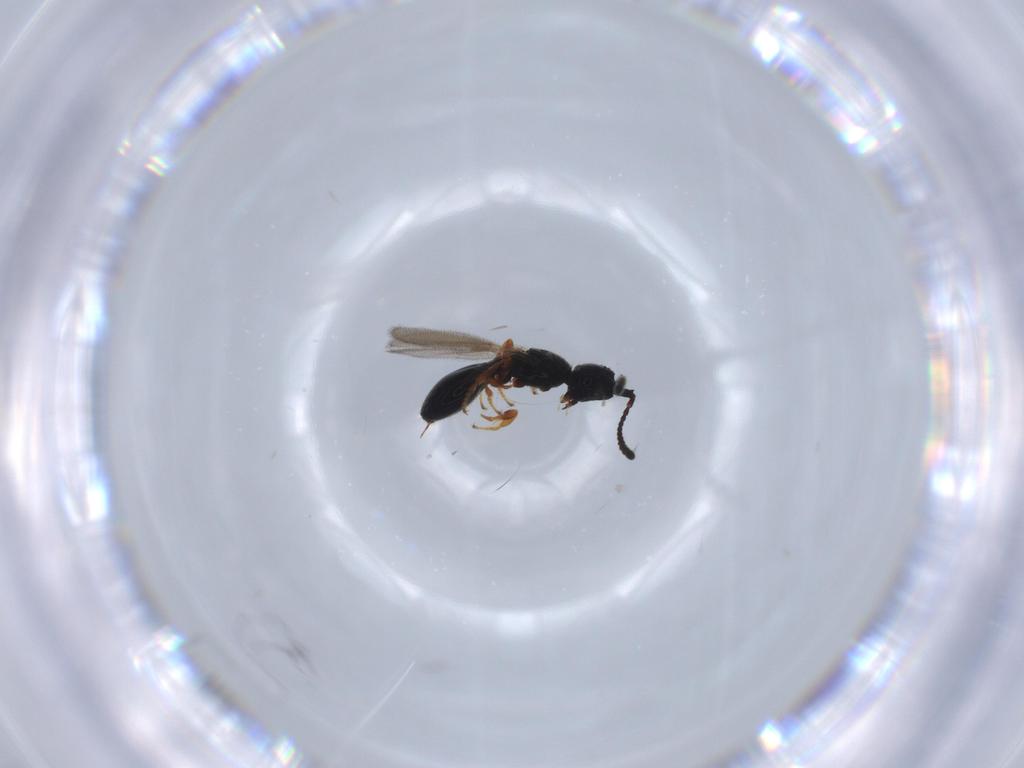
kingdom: Animalia
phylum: Arthropoda
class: Insecta
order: Hymenoptera
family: Diapriidae
